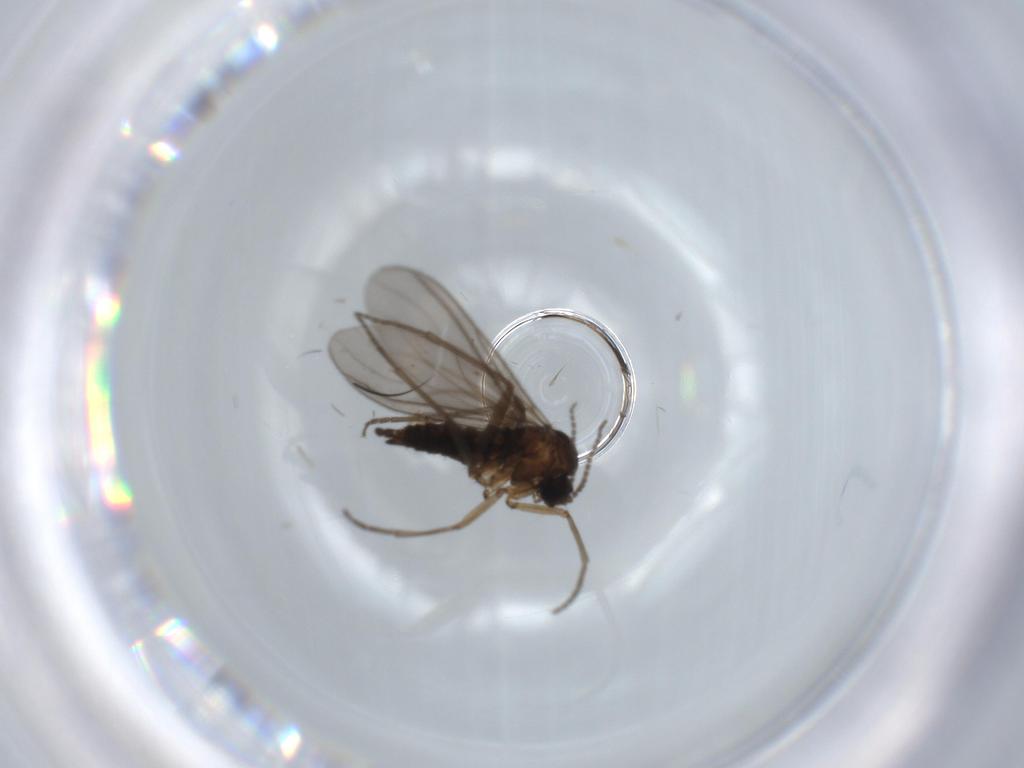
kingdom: Animalia
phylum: Arthropoda
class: Insecta
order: Diptera
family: Sciaridae
